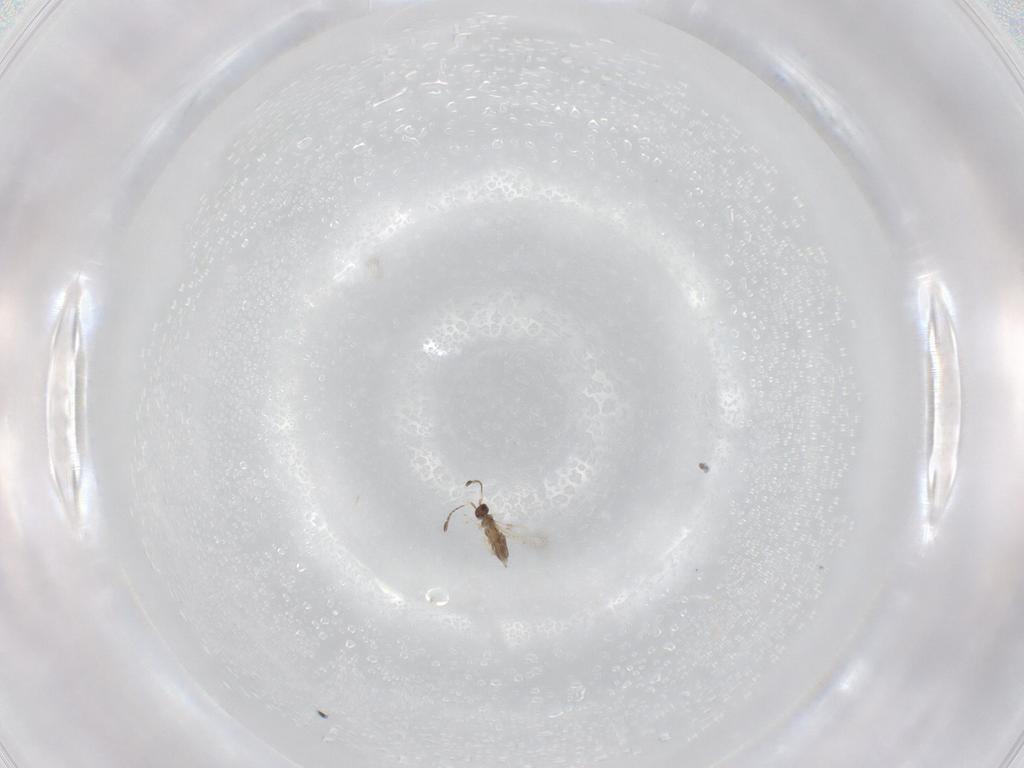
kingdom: Animalia
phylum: Arthropoda
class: Insecta
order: Hymenoptera
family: Mymaridae
